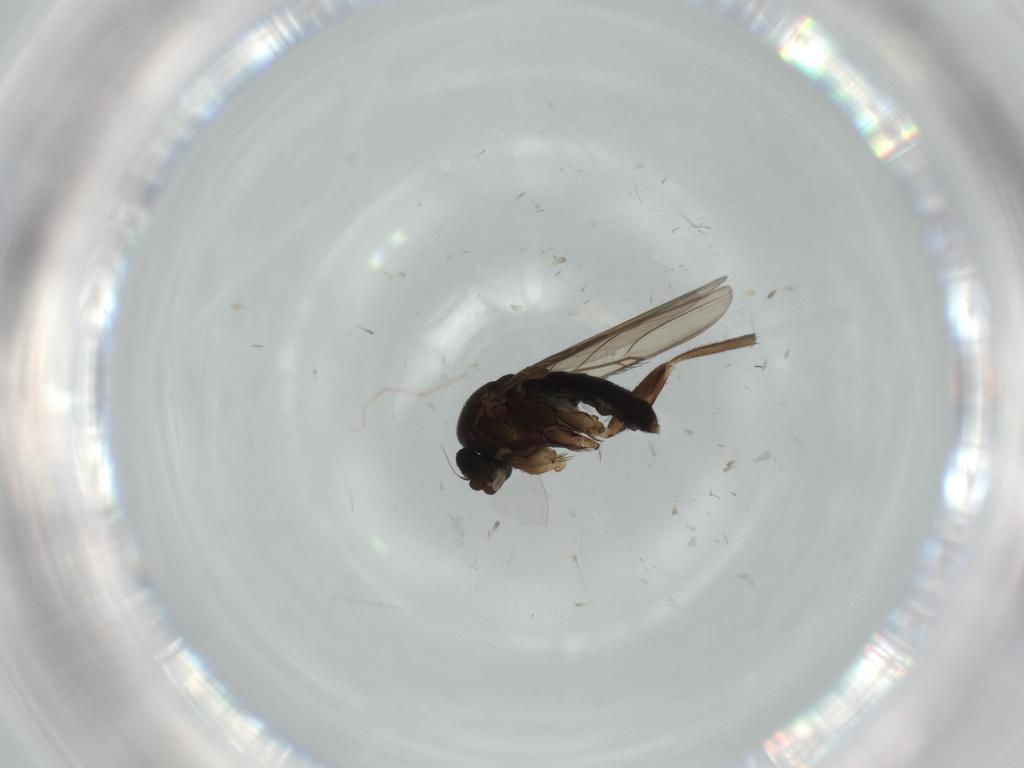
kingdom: Animalia
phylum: Arthropoda
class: Insecta
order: Diptera
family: Phoridae
